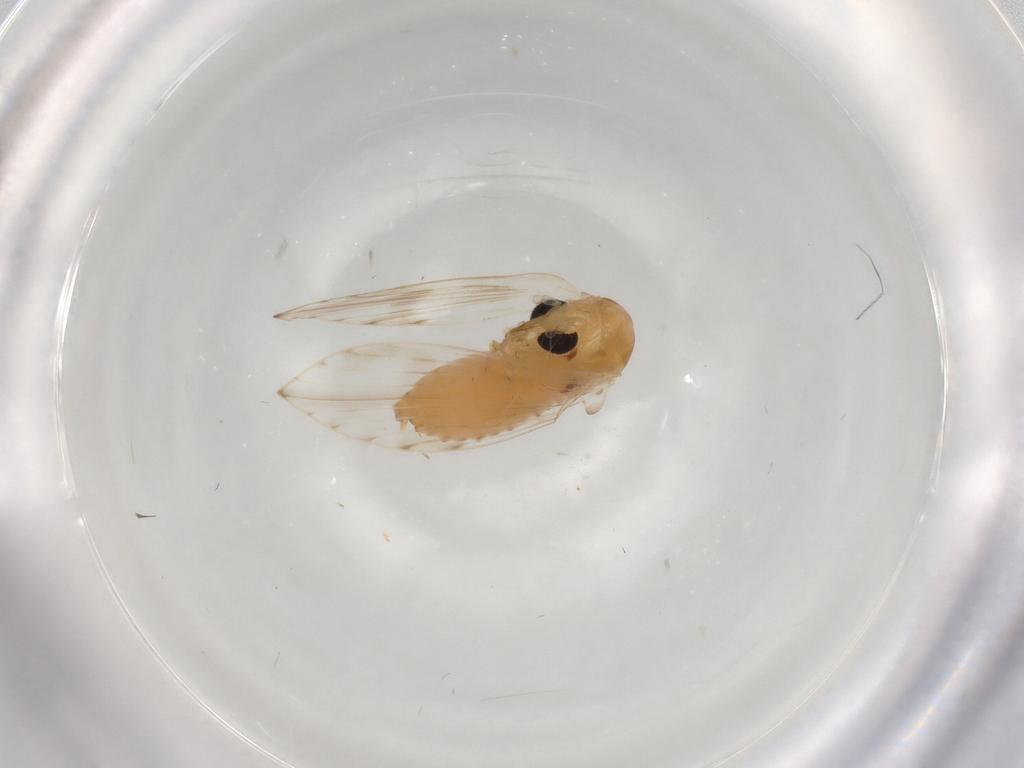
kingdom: Animalia
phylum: Arthropoda
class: Insecta
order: Diptera
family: Psychodidae
